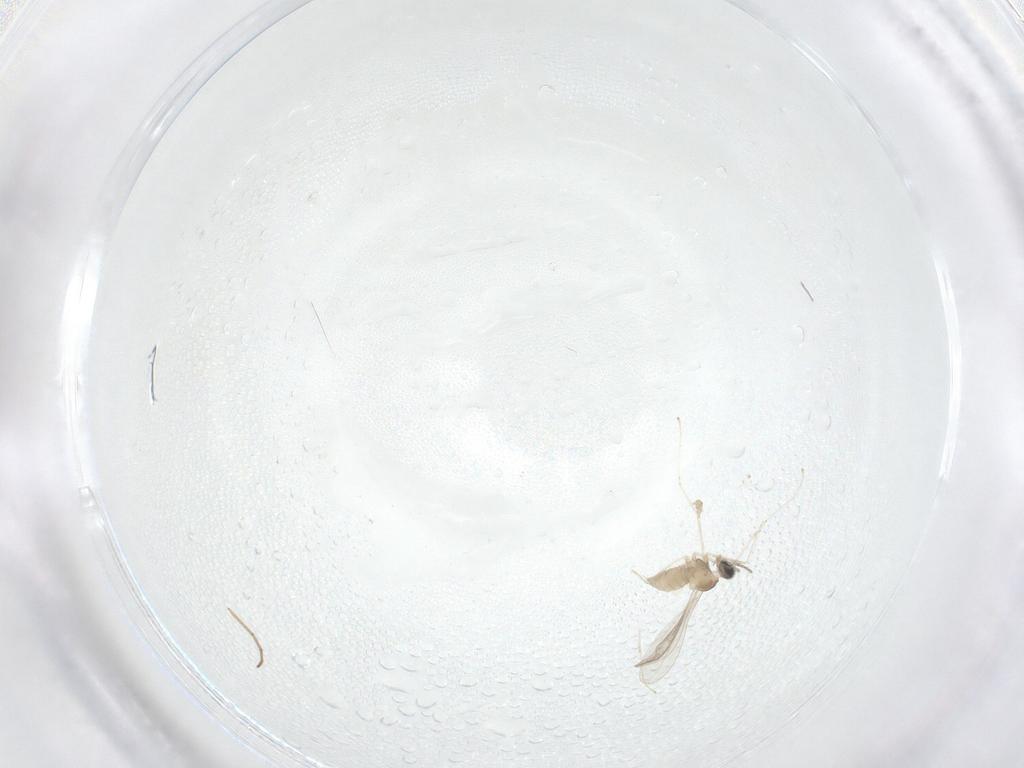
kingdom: Animalia
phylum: Arthropoda
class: Insecta
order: Diptera
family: Cecidomyiidae
